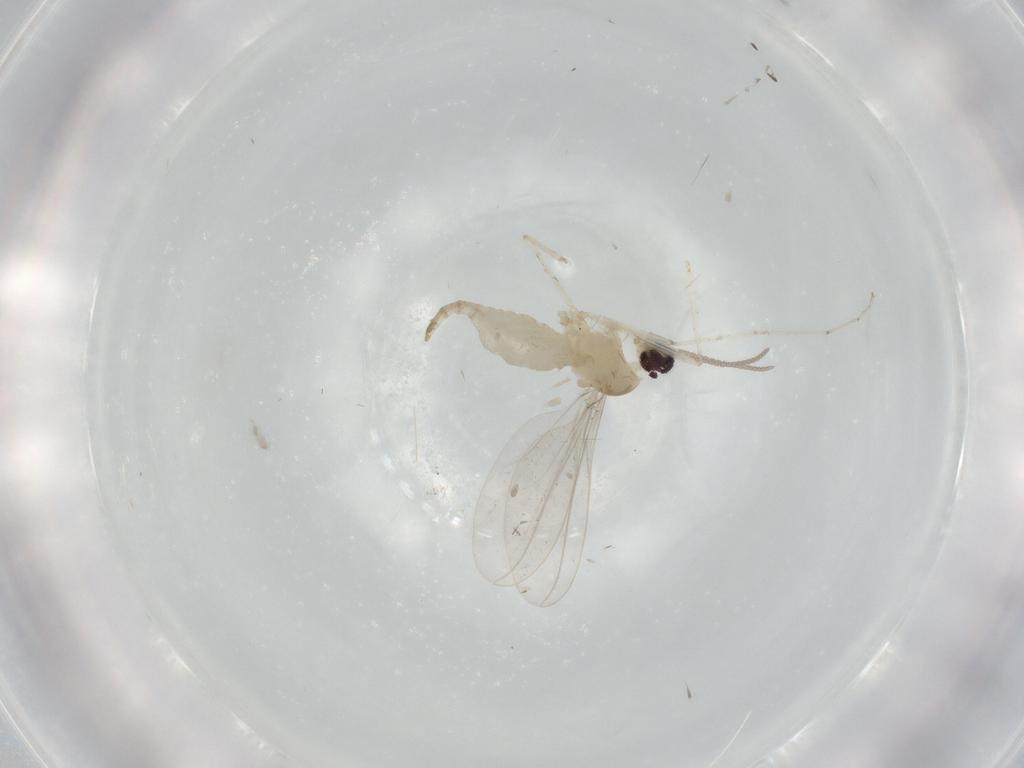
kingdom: Animalia
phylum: Arthropoda
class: Insecta
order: Diptera
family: Cecidomyiidae
